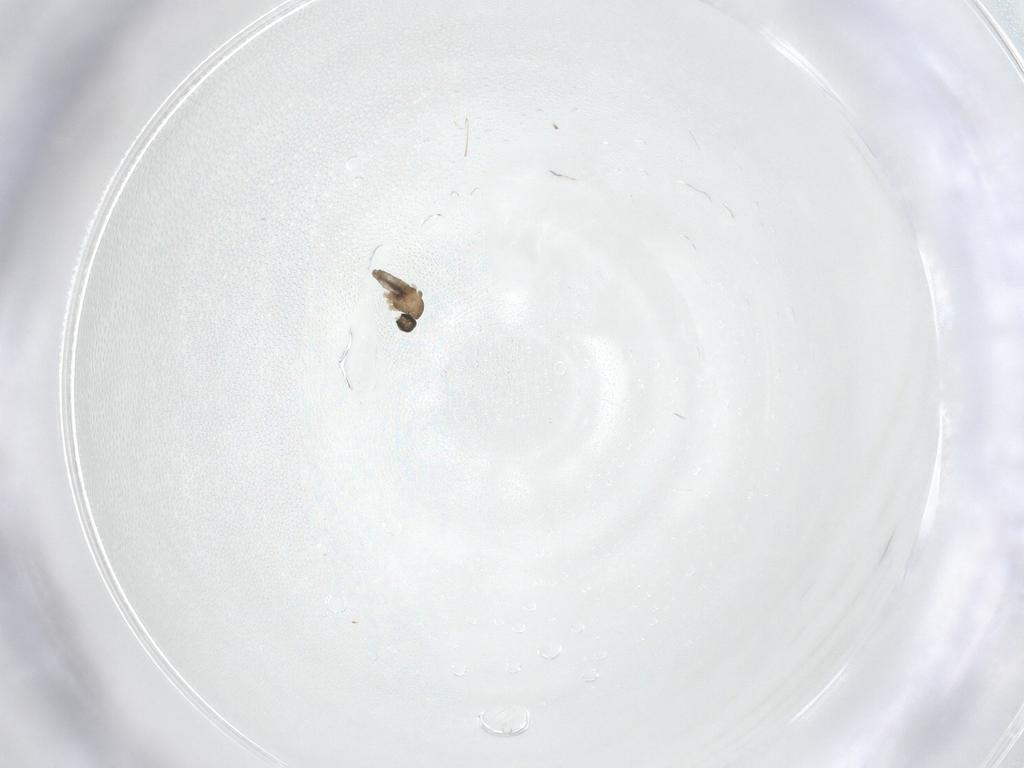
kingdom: Animalia
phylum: Arthropoda
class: Insecta
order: Diptera
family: Cecidomyiidae
